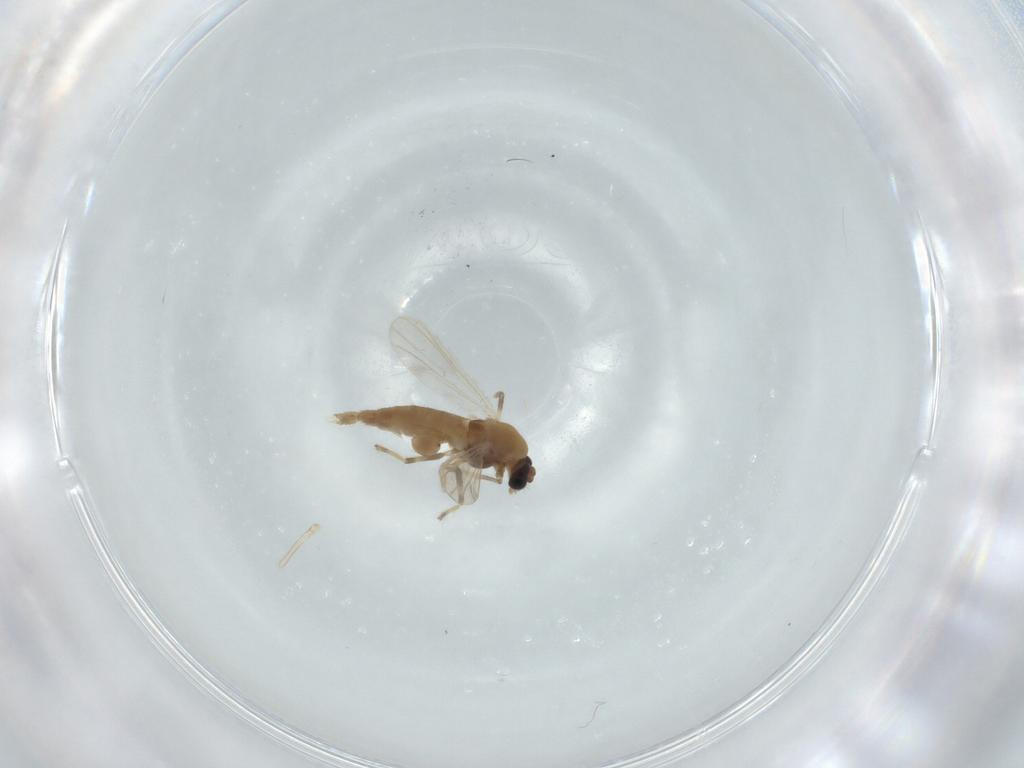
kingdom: Animalia
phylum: Arthropoda
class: Insecta
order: Diptera
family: Chironomidae
